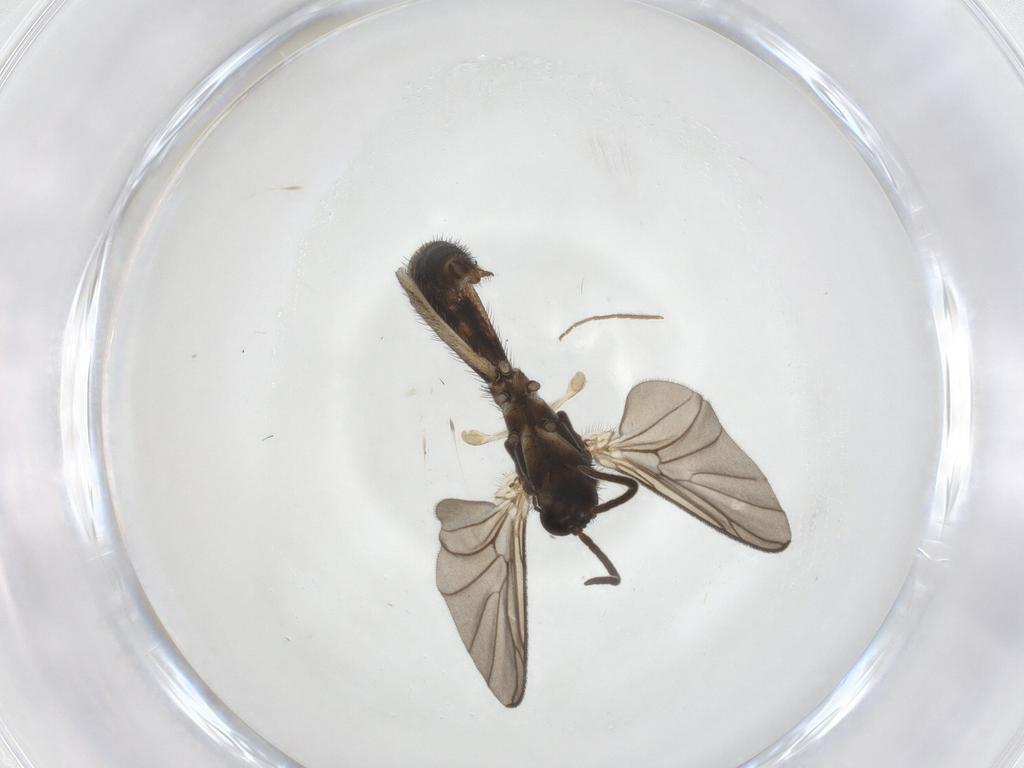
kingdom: Animalia
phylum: Arthropoda
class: Insecta
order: Diptera
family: Keroplatidae
